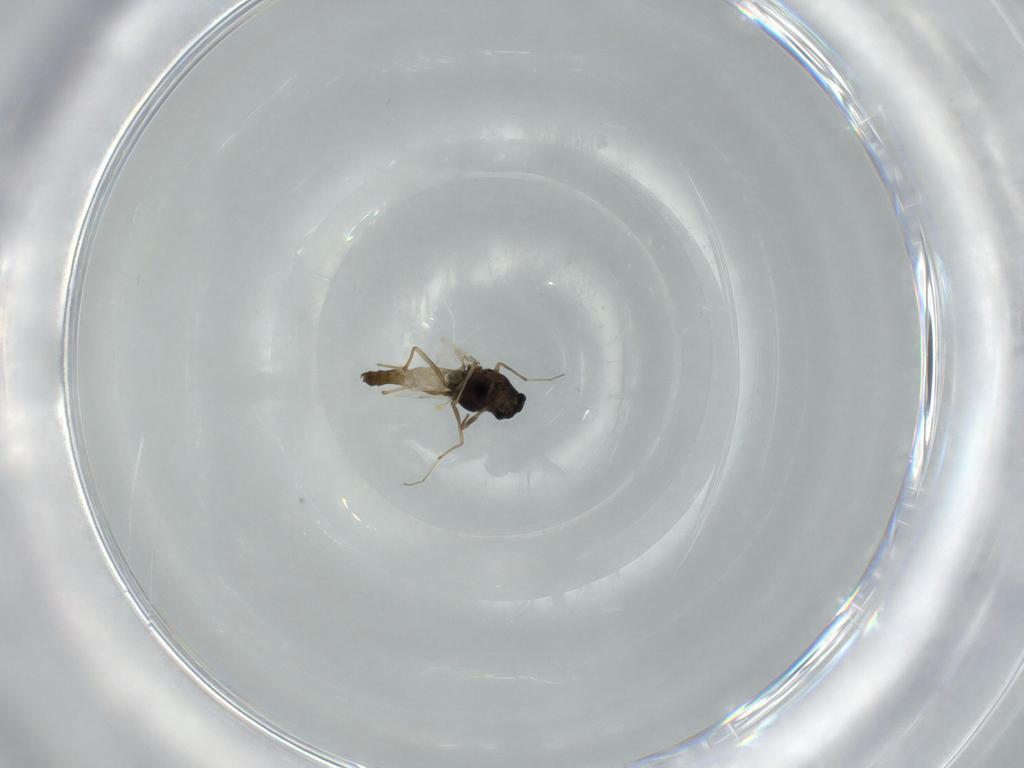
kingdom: Animalia
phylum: Arthropoda
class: Insecta
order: Diptera
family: Chironomidae
